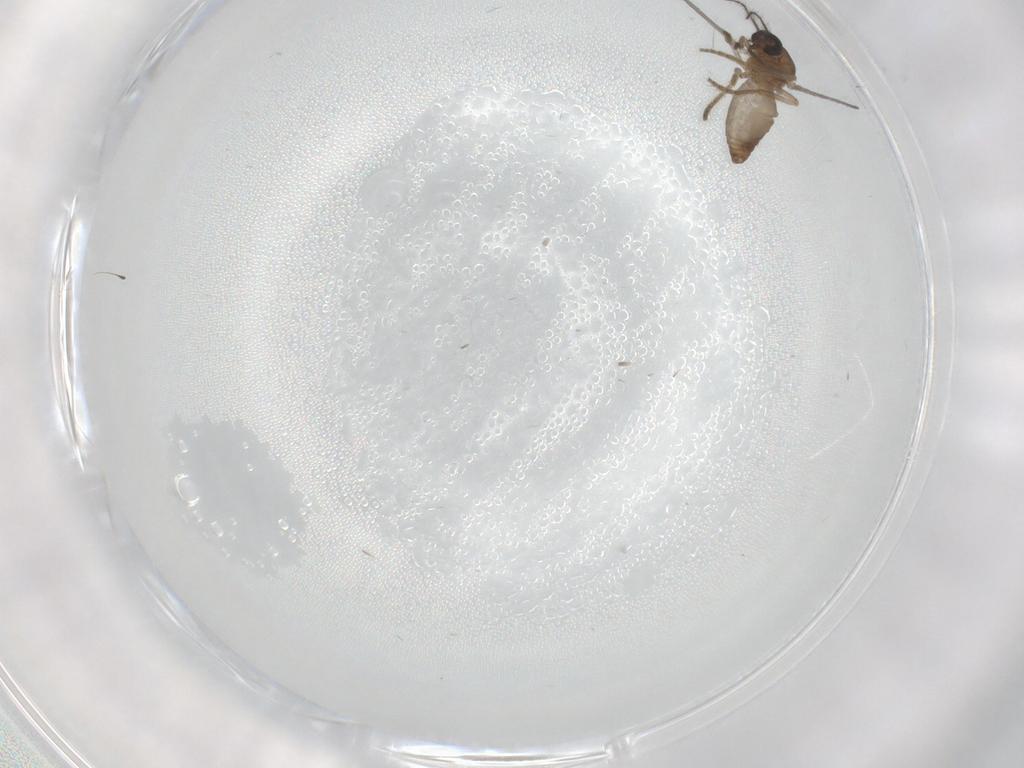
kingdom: Animalia
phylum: Arthropoda
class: Insecta
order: Diptera
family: Ceratopogonidae
